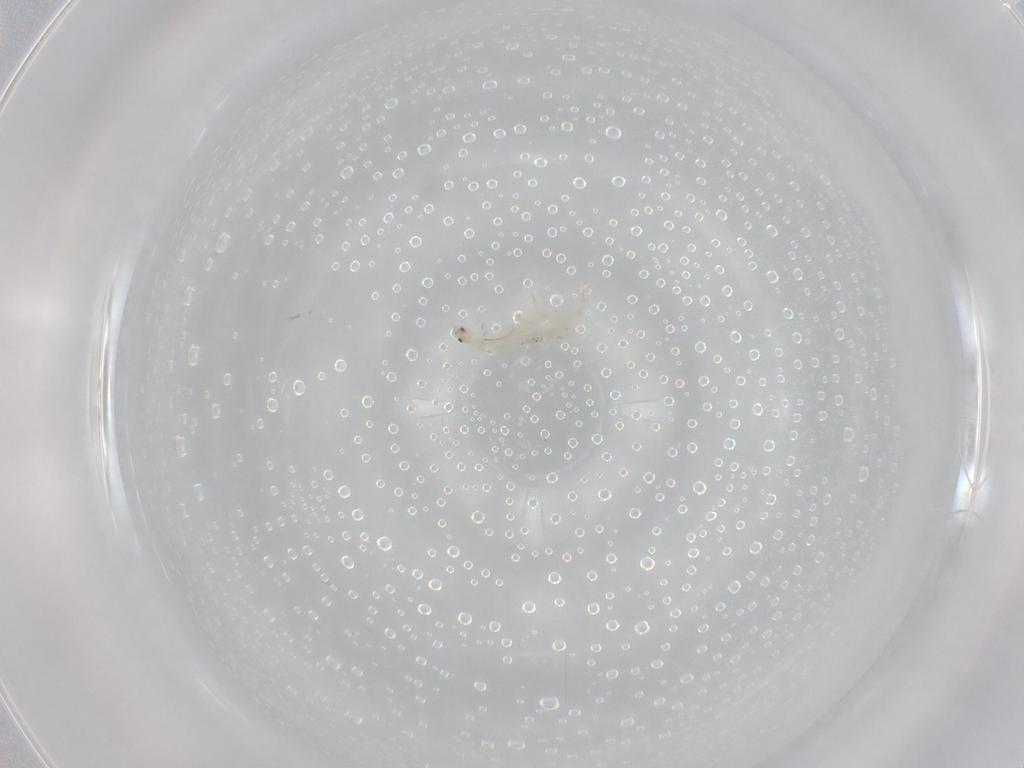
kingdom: Animalia
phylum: Arthropoda
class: Collembola
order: Entomobryomorpha
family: Entomobryidae
